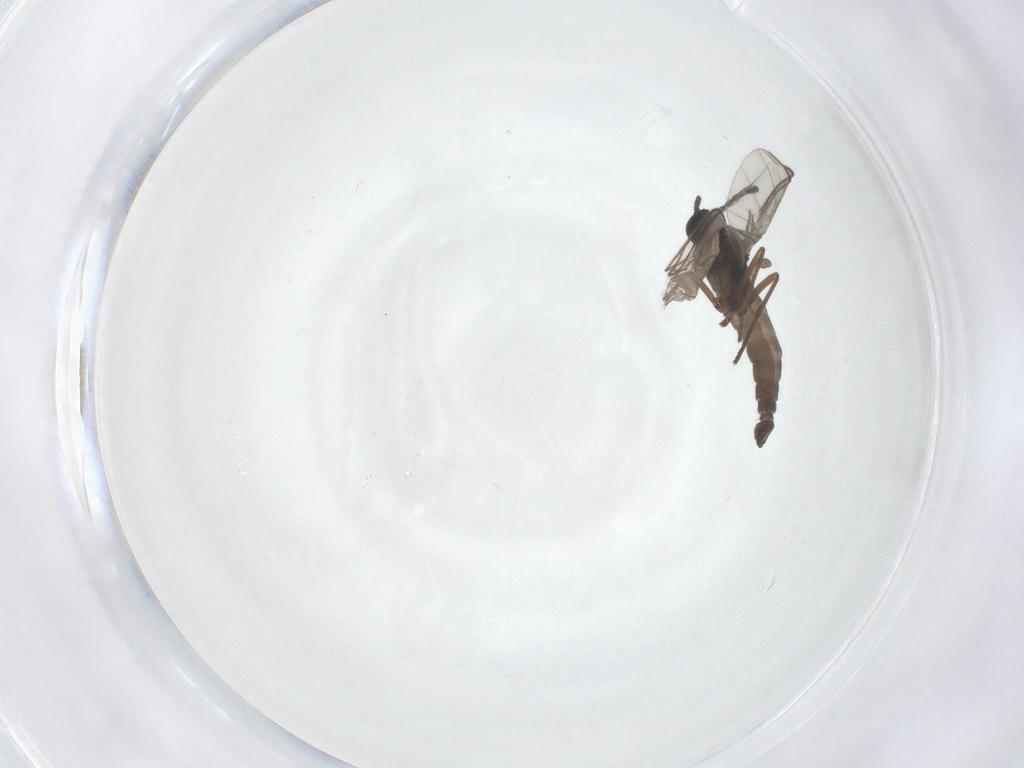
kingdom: Animalia
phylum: Arthropoda
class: Insecta
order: Diptera
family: Sciaridae
